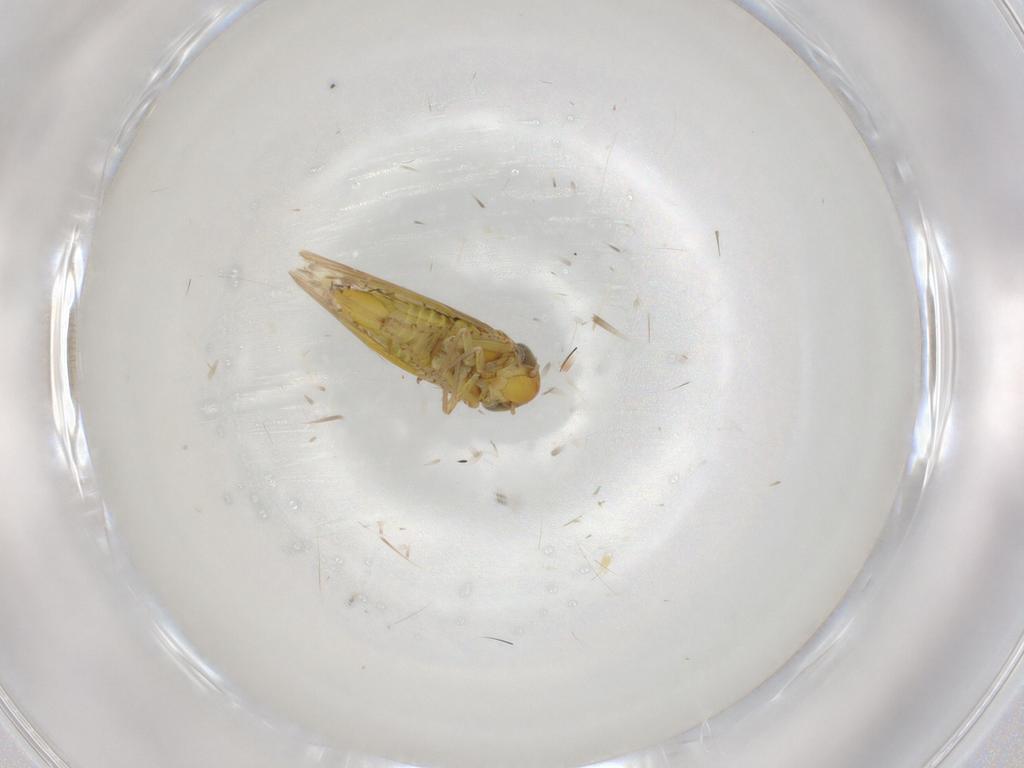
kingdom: Animalia
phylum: Arthropoda
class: Insecta
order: Hemiptera
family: Cicadellidae
